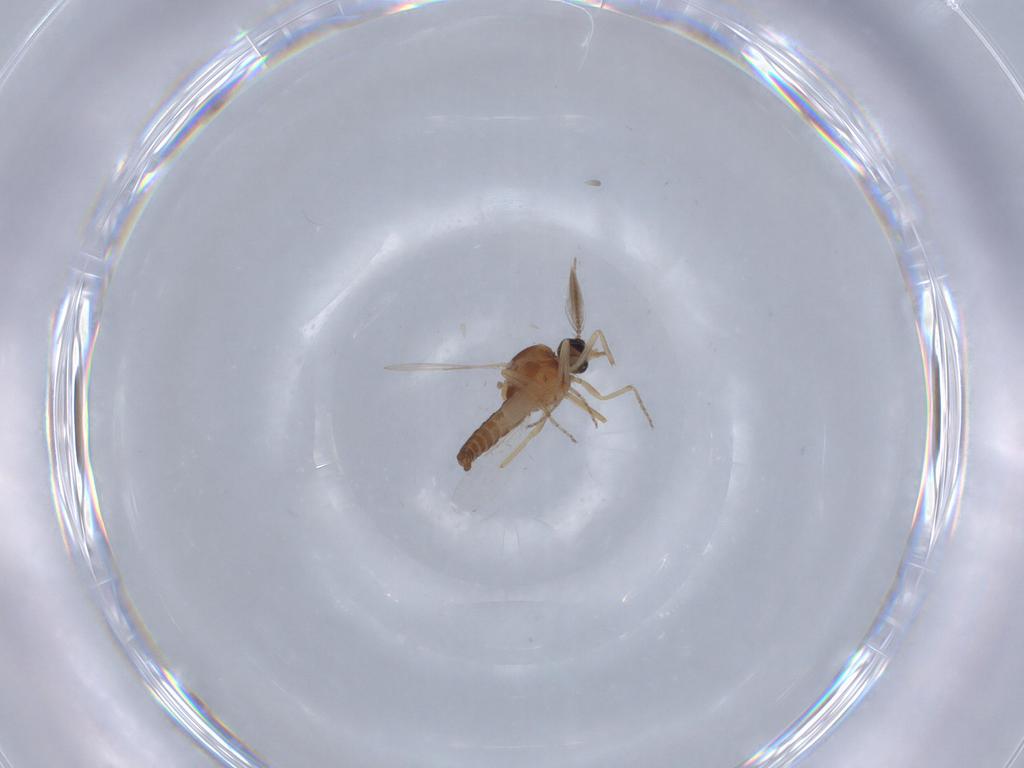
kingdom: Animalia
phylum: Arthropoda
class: Insecta
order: Diptera
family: Ceratopogonidae
